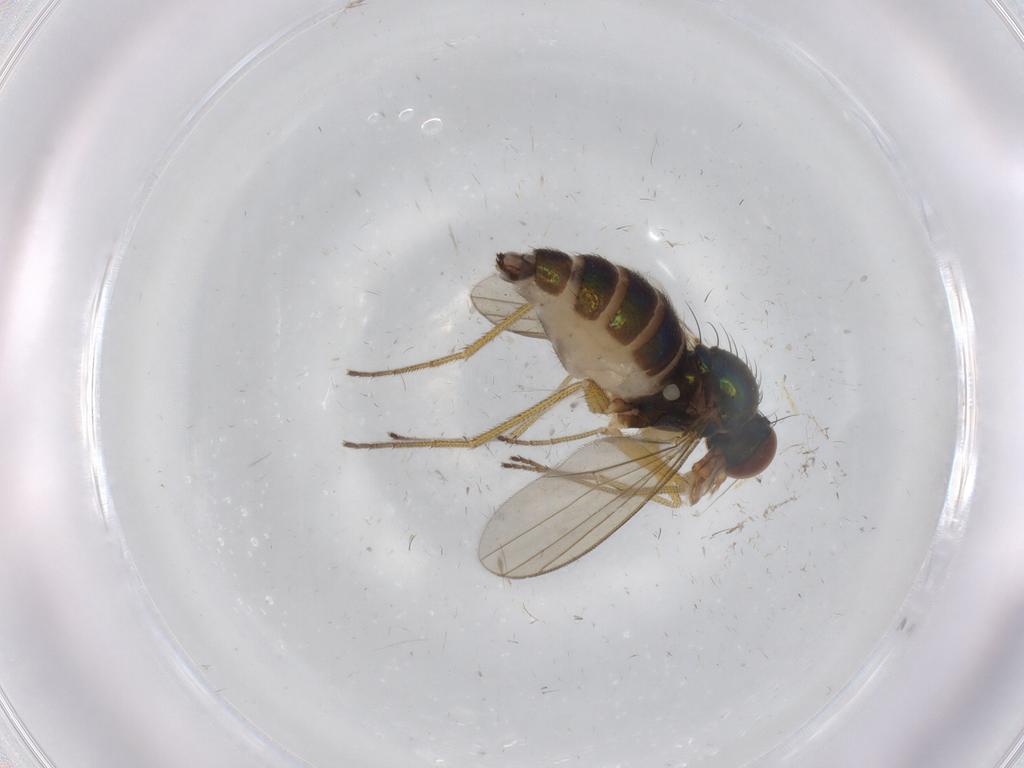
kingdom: Animalia
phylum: Arthropoda
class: Insecta
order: Diptera
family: Dolichopodidae
